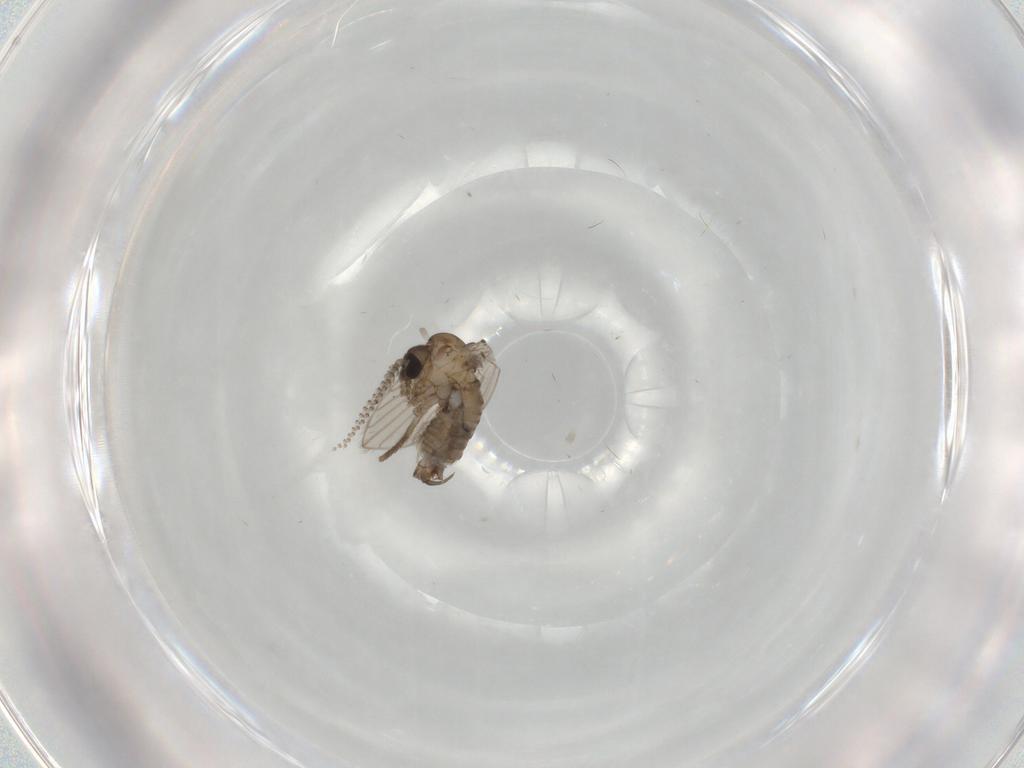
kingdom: Animalia
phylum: Arthropoda
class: Insecta
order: Diptera
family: Psychodidae
